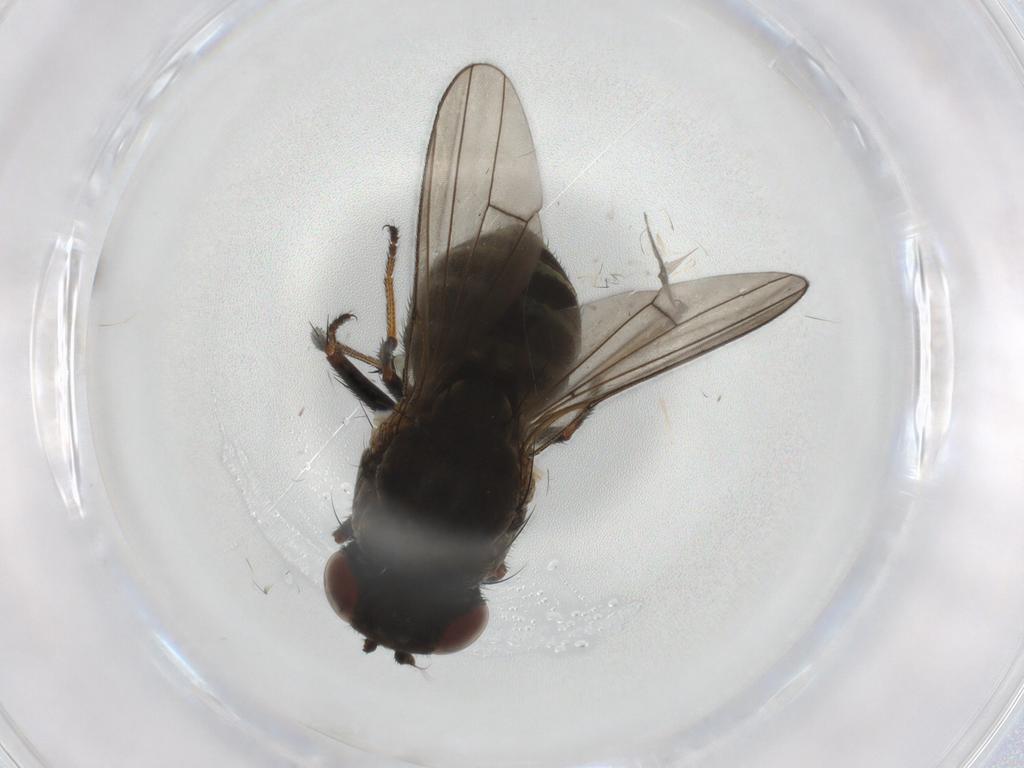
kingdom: Animalia
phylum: Arthropoda
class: Insecta
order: Diptera
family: Ephydridae
